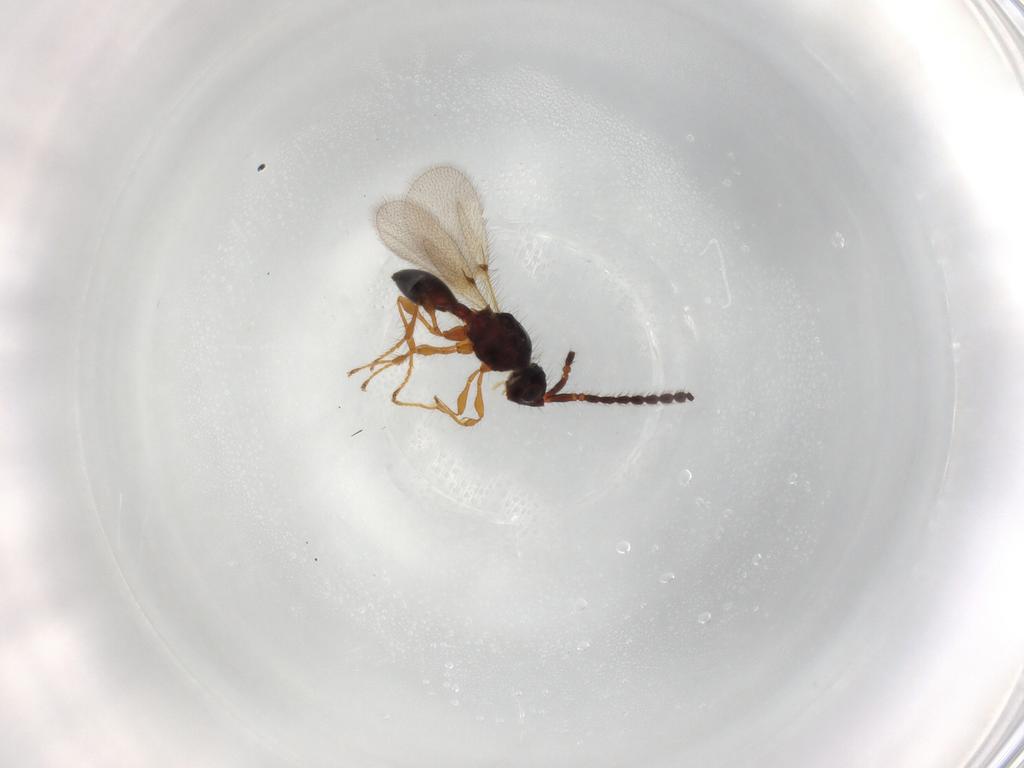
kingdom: Animalia
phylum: Arthropoda
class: Insecta
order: Hymenoptera
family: Diapriidae
